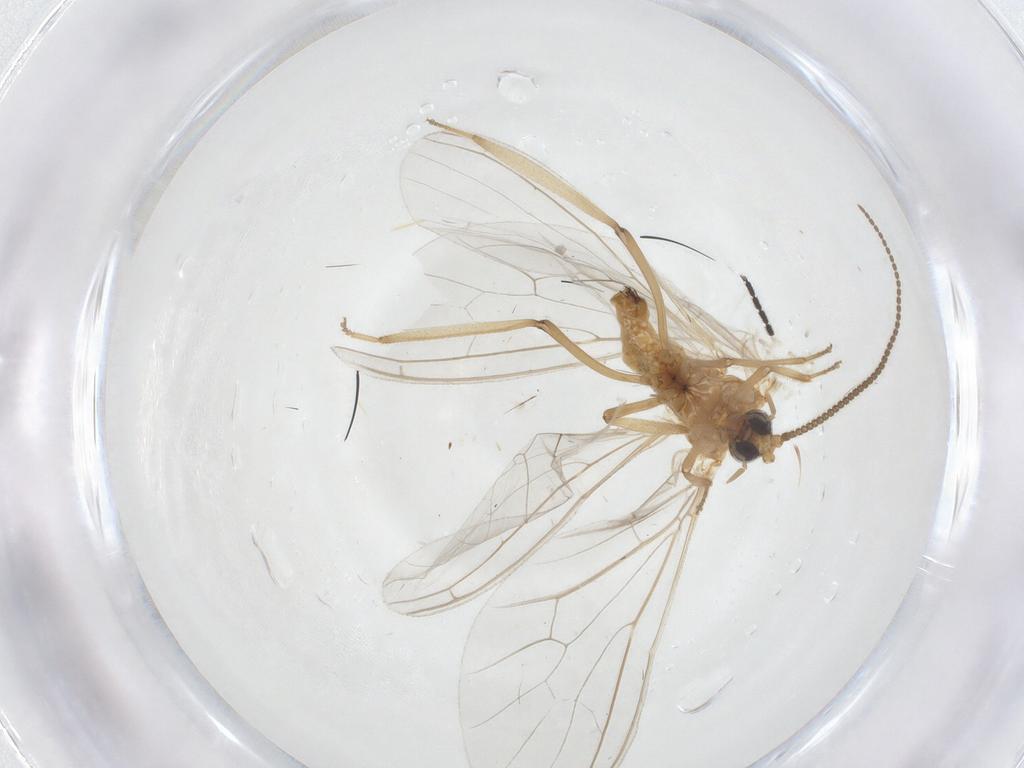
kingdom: Animalia
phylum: Arthropoda
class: Insecta
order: Neuroptera
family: Coniopterygidae
